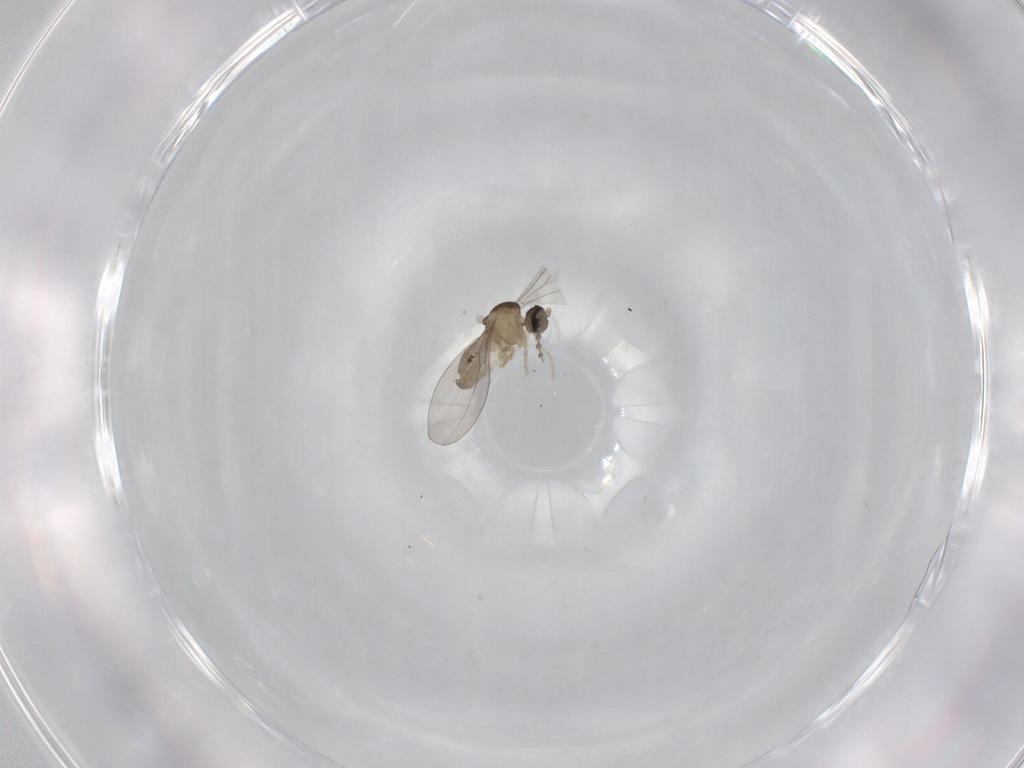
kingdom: Animalia
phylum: Arthropoda
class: Insecta
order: Diptera
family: Cecidomyiidae
